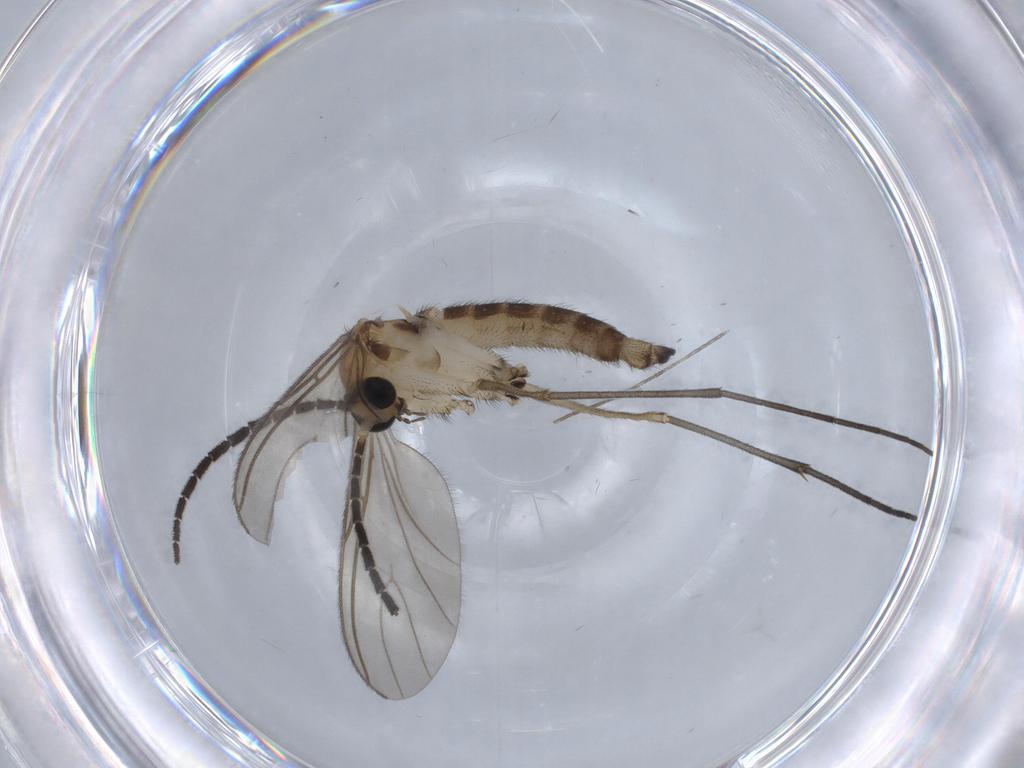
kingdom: Animalia
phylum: Arthropoda
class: Insecta
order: Diptera
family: Sciaridae
